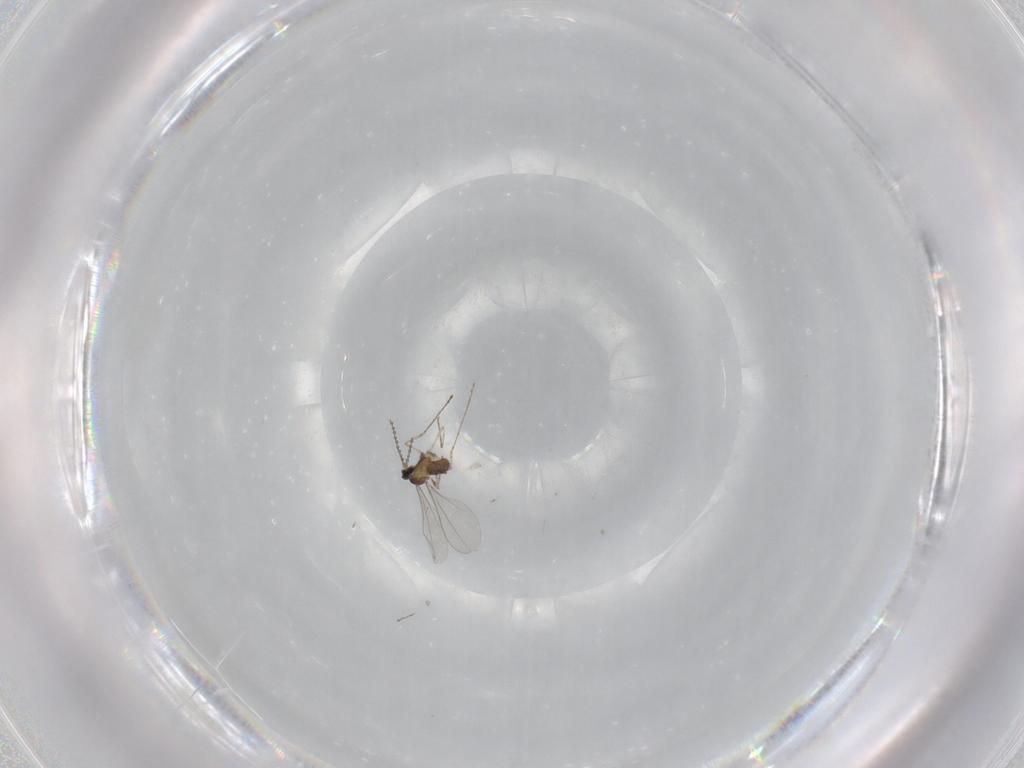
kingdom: Animalia
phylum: Arthropoda
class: Insecta
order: Diptera
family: Cecidomyiidae
